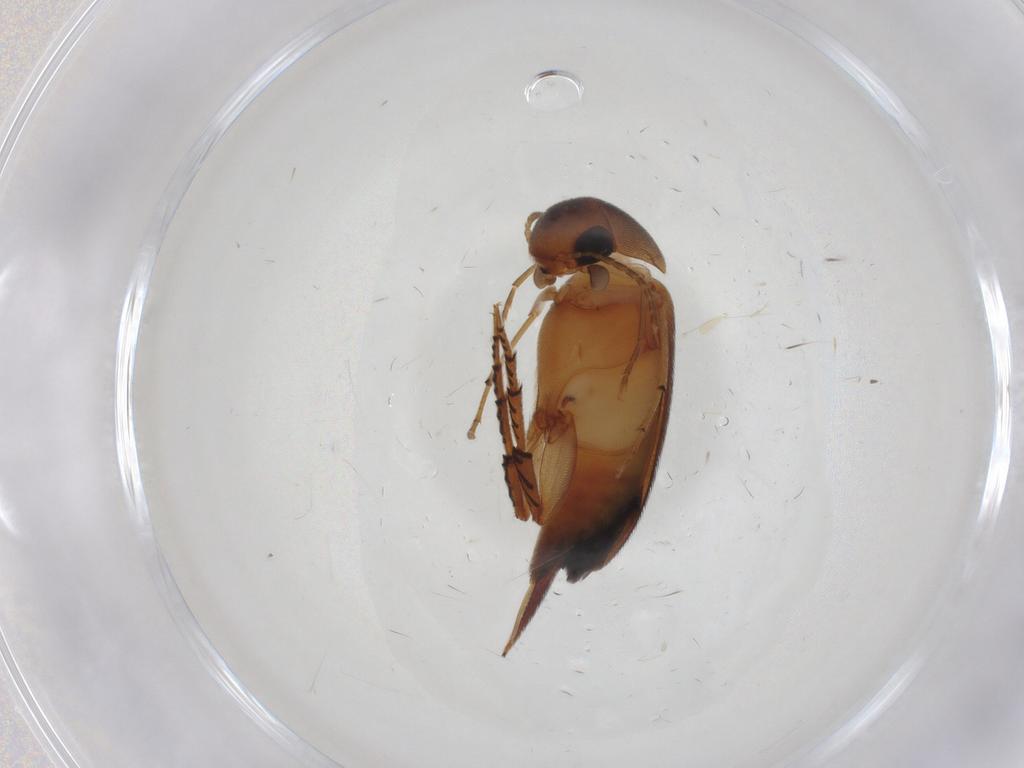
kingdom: Animalia
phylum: Arthropoda
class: Insecta
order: Coleoptera
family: Mordellidae
